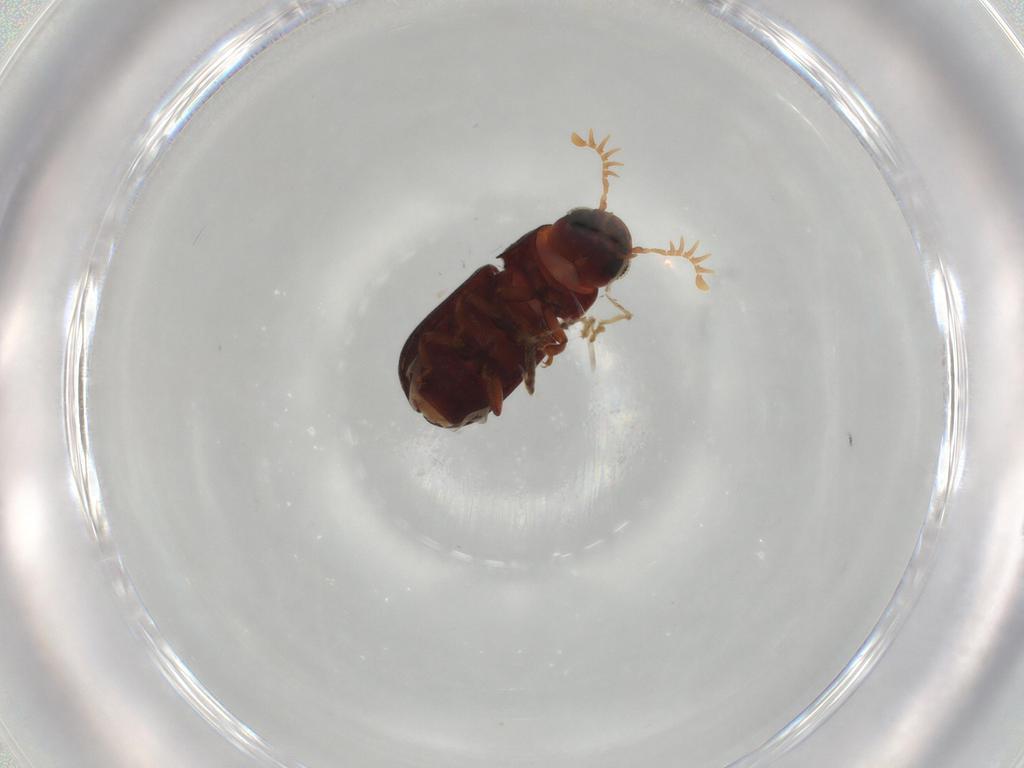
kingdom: Animalia
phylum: Arthropoda
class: Insecta
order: Coleoptera
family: Ptinidae
